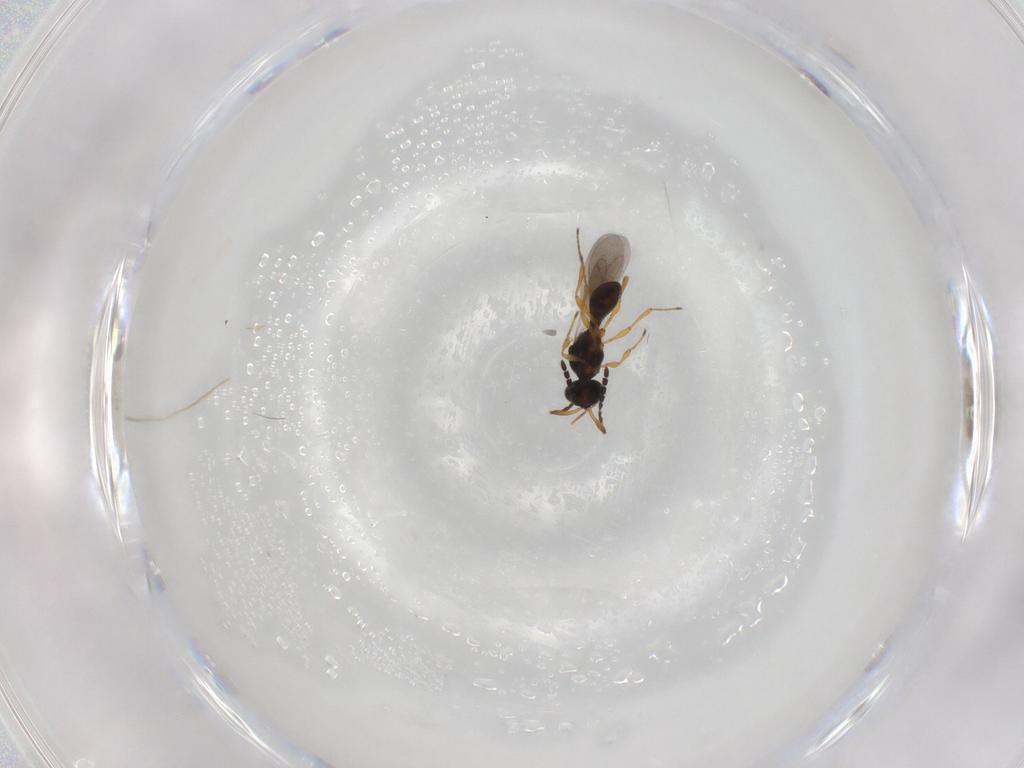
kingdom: Animalia
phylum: Arthropoda
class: Insecta
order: Hymenoptera
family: Platygastridae
